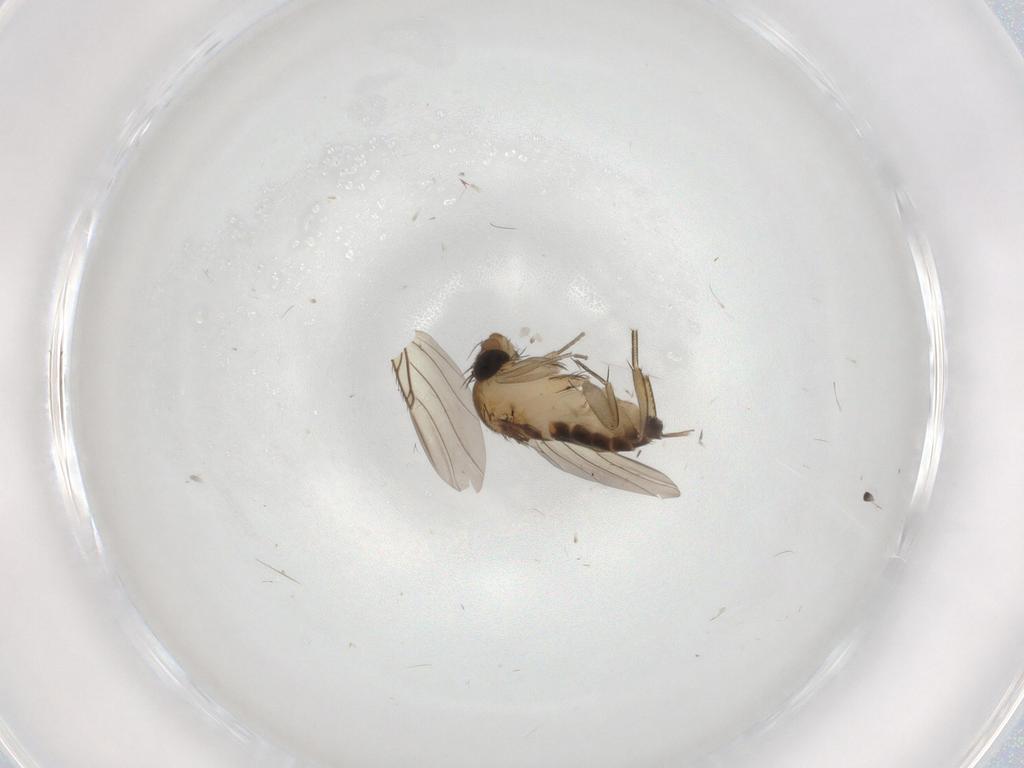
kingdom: Animalia
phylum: Arthropoda
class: Insecta
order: Diptera
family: Phoridae
